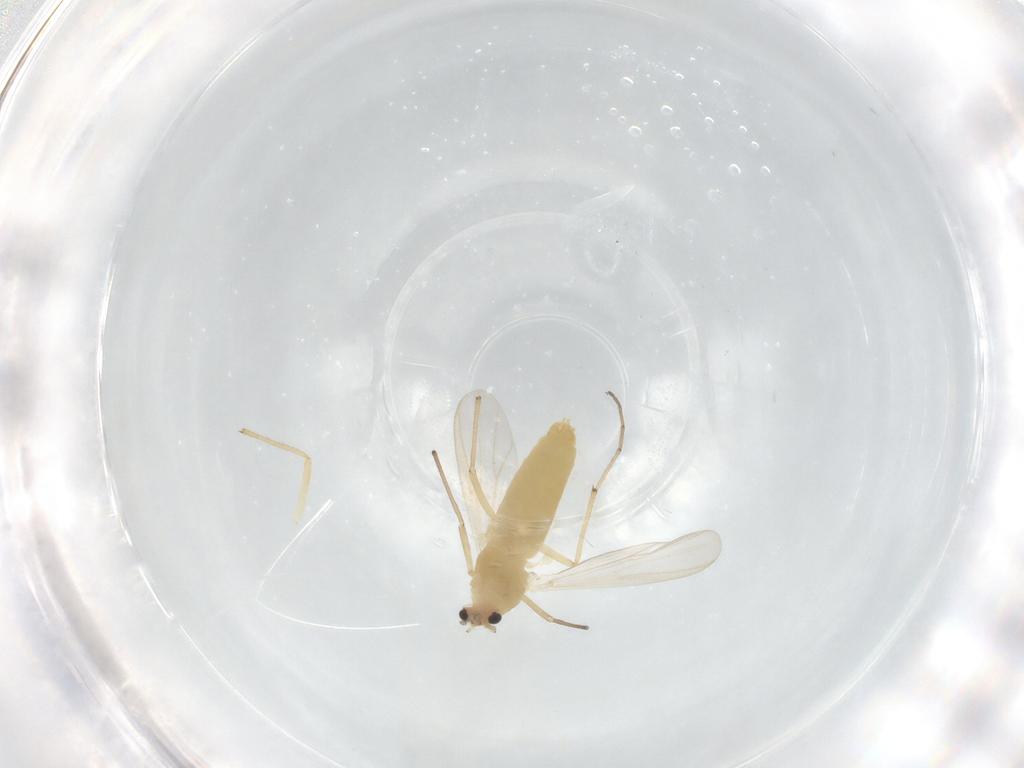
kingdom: Animalia
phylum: Arthropoda
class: Insecta
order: Diptera
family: Chironomidae
